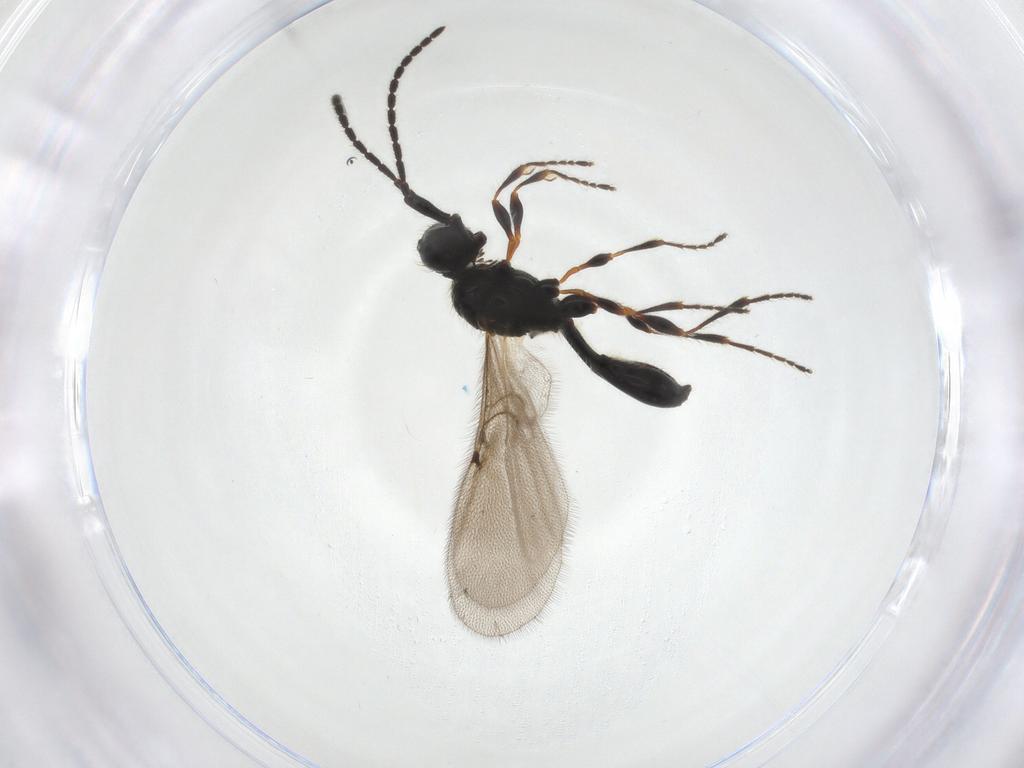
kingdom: Animalia
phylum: Arthropoda
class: Insecta
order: Hymenoptera
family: Diapriidae
